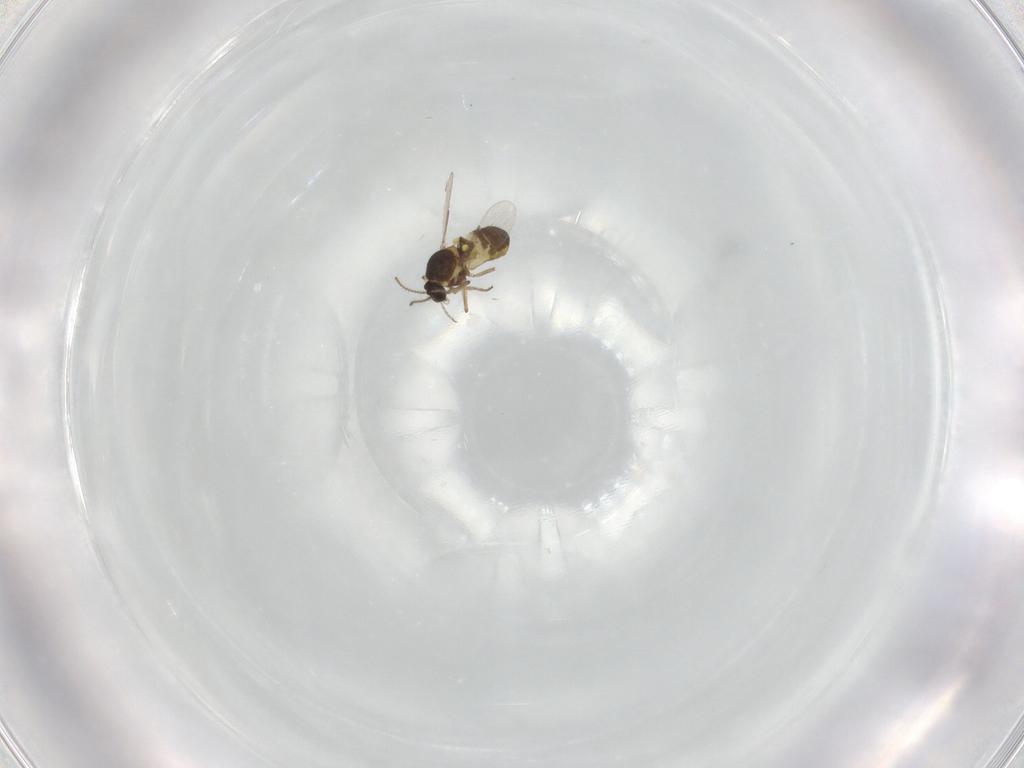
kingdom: Animalia
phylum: Arthropoda
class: Insecta
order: Diptera
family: Ceratopogonidae
